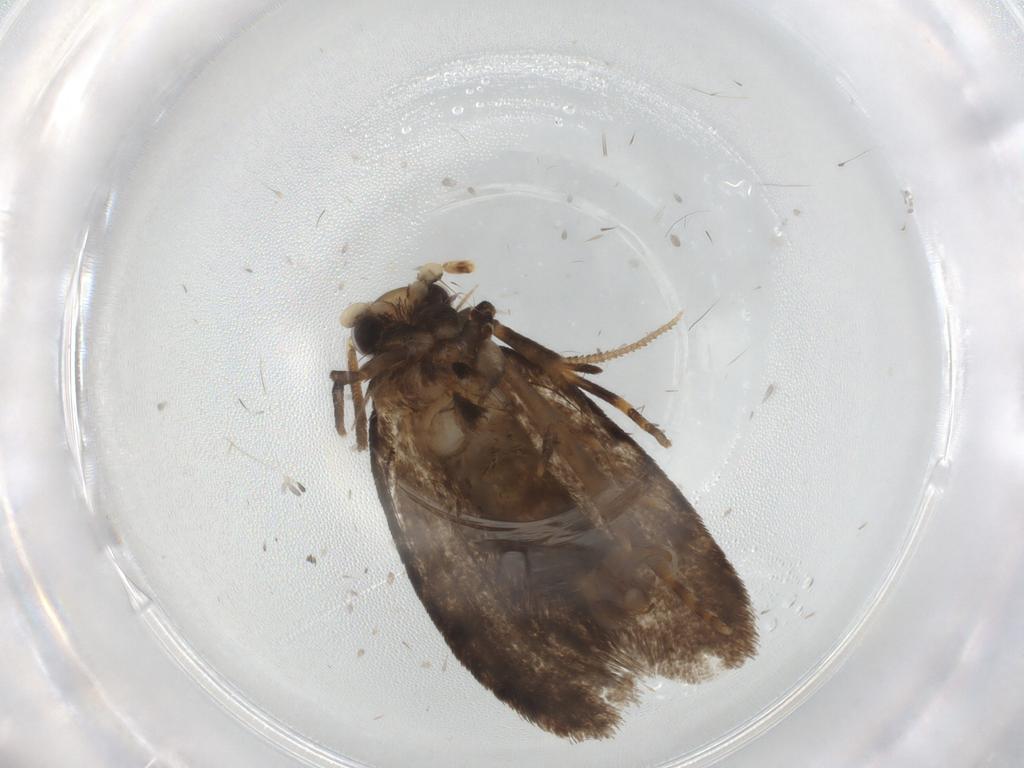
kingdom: Animalia
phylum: Arthropoda
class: Insecta
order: Lepidoptera
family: Tineidae
